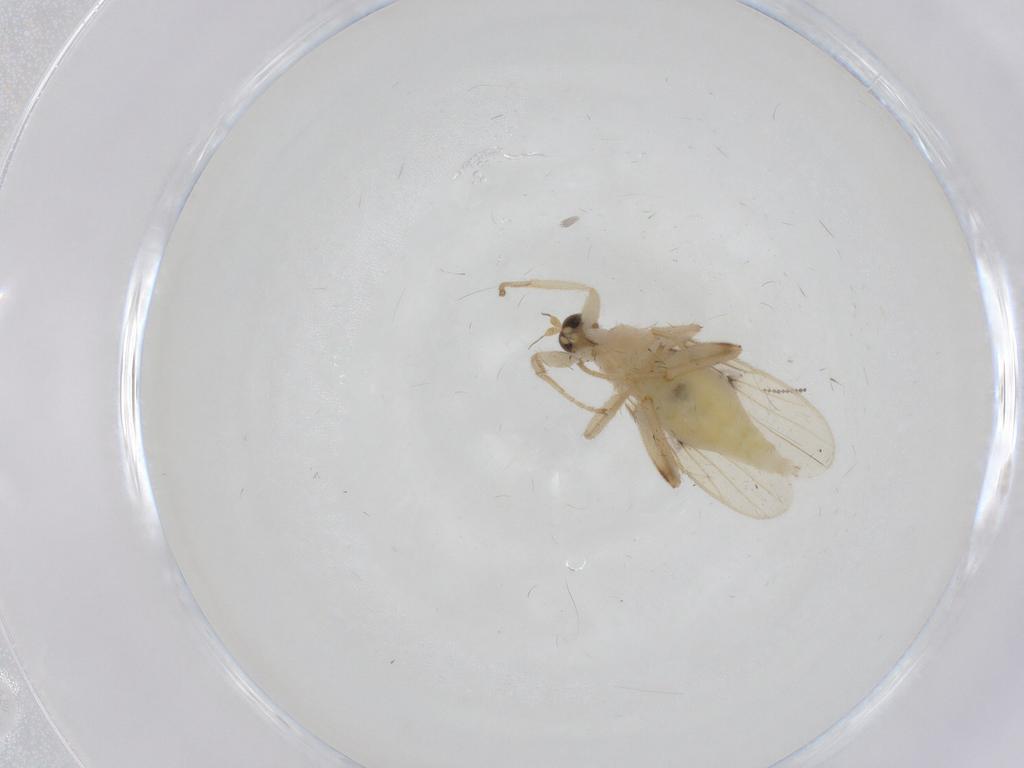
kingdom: Animalia
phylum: Arthropoda
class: Insecta
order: Diptera
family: Hybotidae
